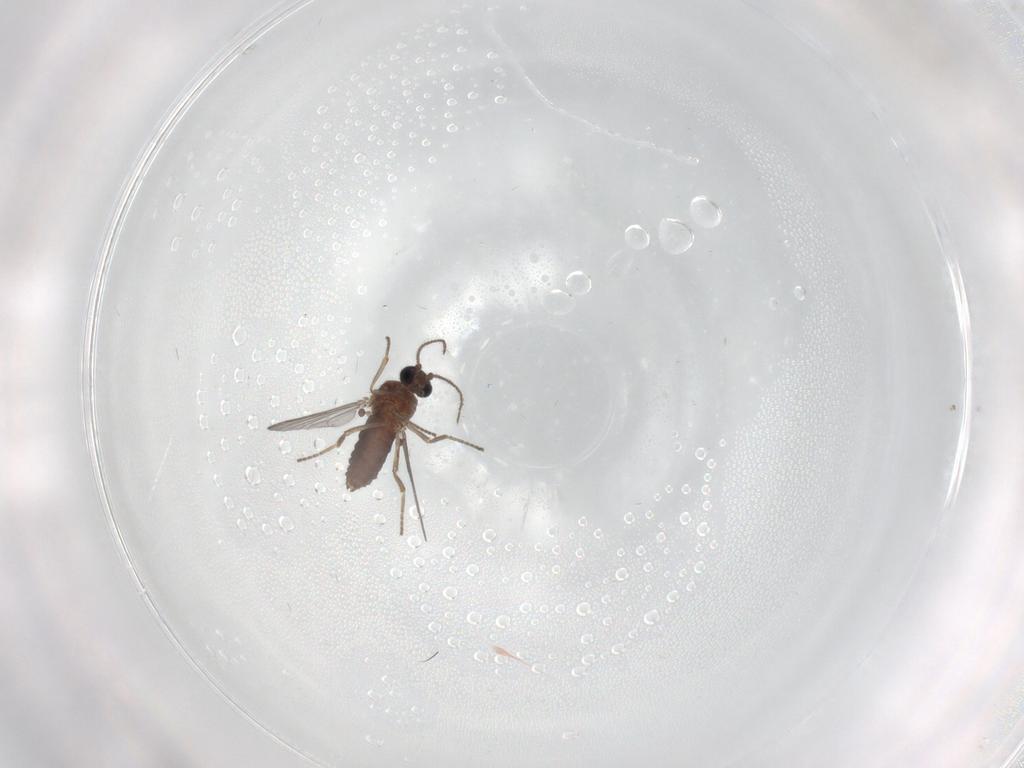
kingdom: Animalia
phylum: Arthropoda
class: Insecta
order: Diptera
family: Ceratopogonidae
